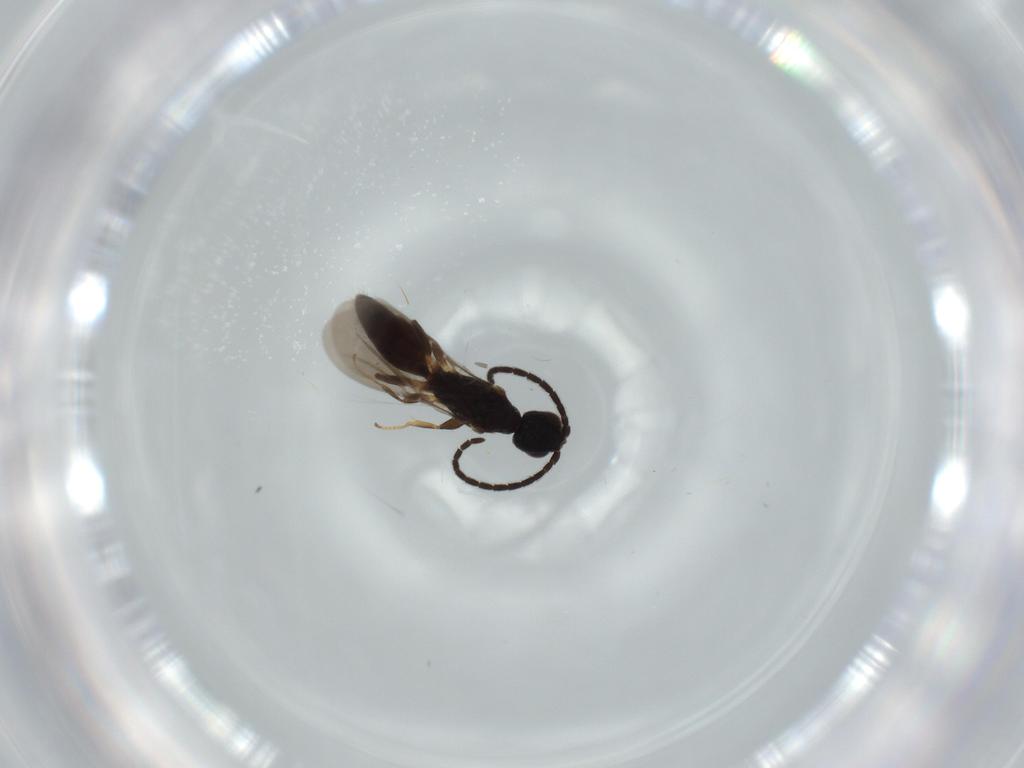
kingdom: Animalia
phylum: Arthropoda
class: Insecta
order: Hymenoptera
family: Bethylidae
